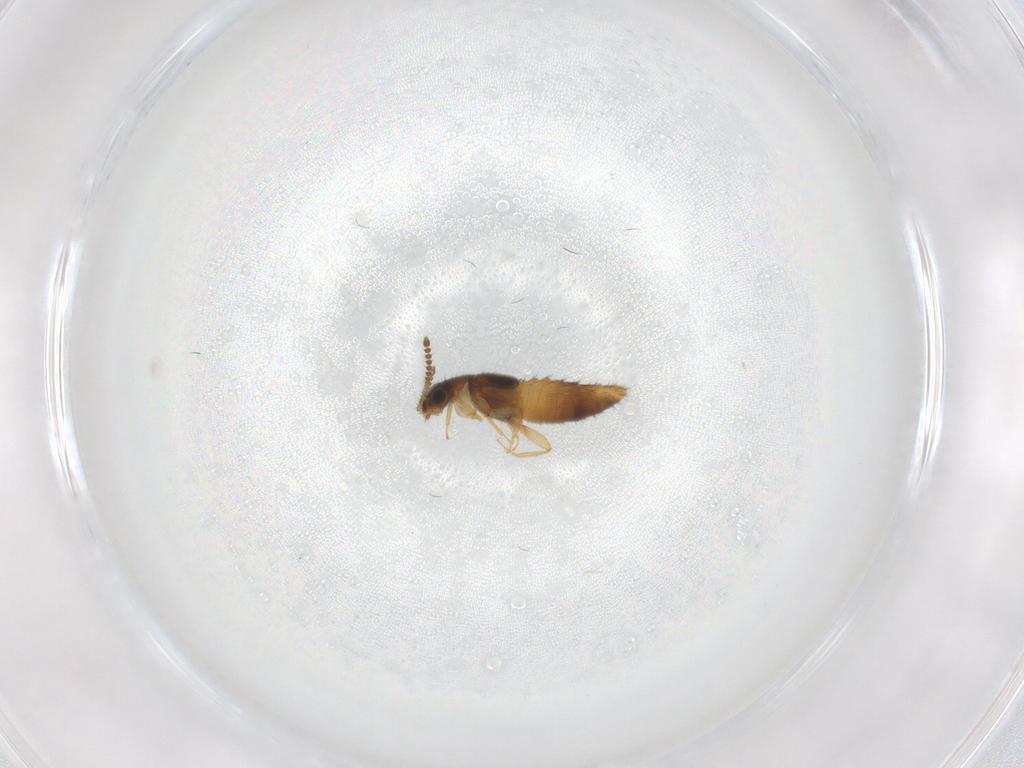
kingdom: Animalia
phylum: Arthropoda
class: Insecta
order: Coleoptera
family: Staphylinidae
